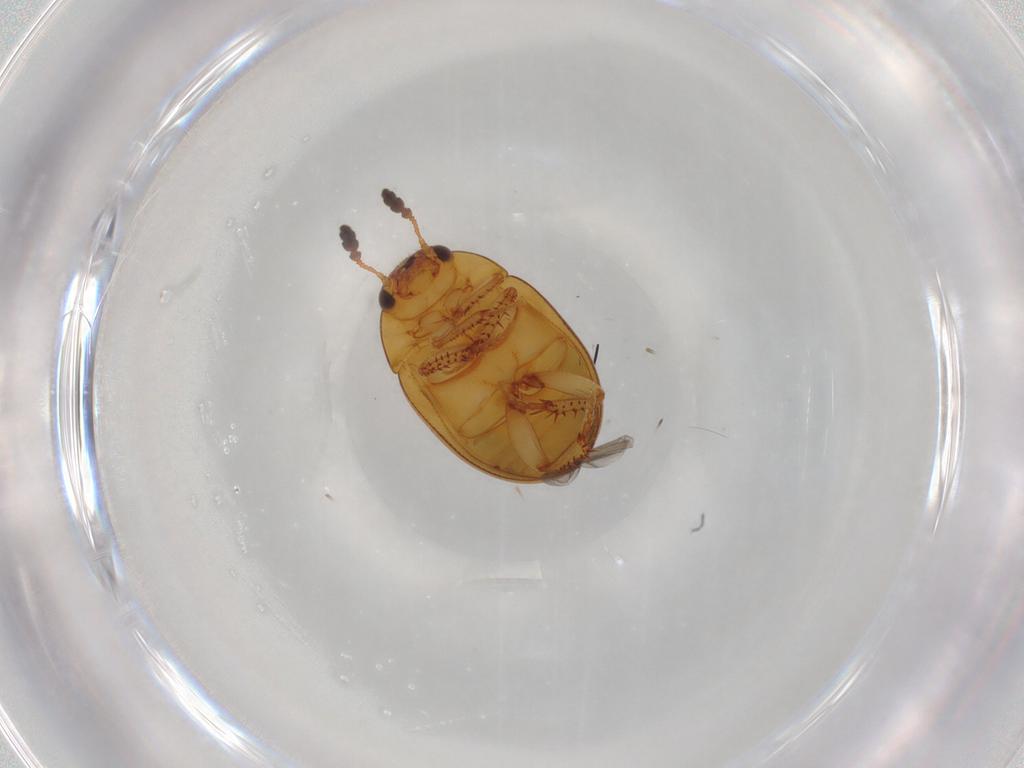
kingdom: Animalia
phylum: Arthropoda
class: Insecta
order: Coleoptera
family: Leiodidae
